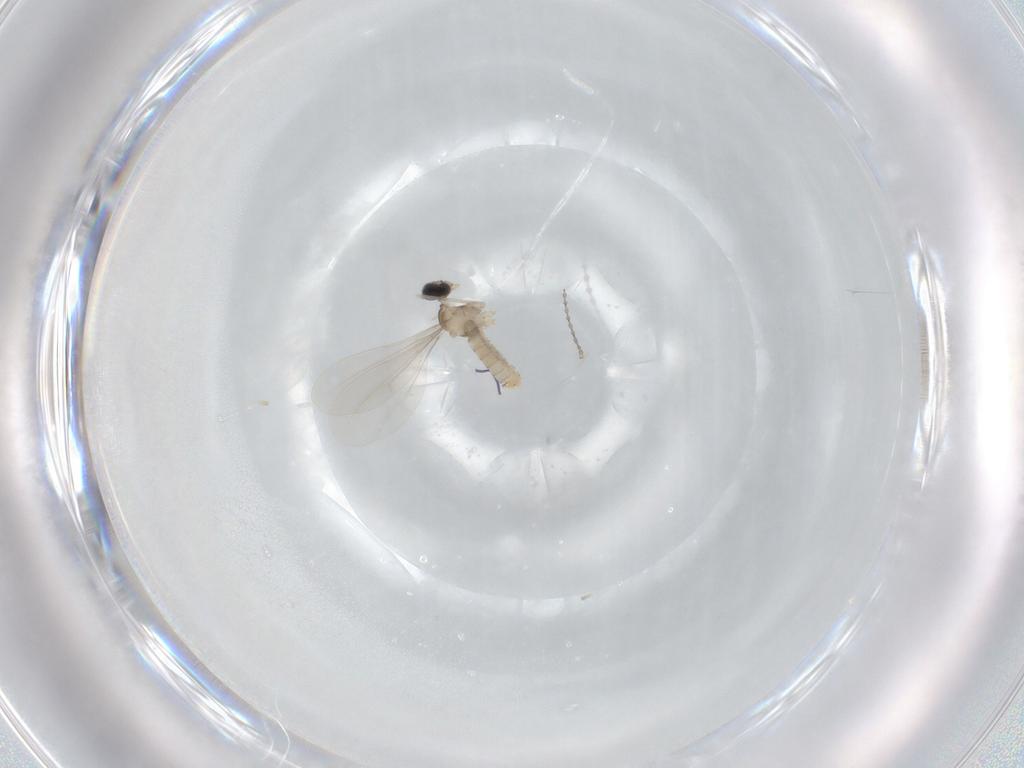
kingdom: Animalia
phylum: Arthropoda
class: Insecta
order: Diptera
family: Cecidomyiidae
